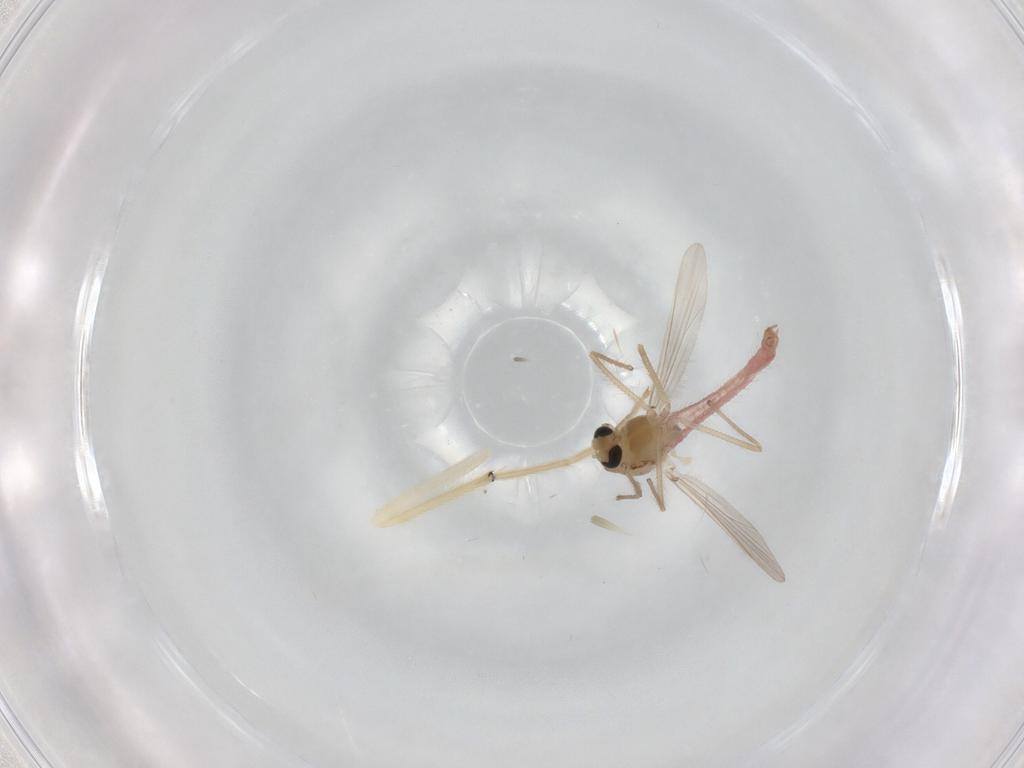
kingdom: Animalia
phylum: Arthropoda
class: Insecta
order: Diptera
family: Chironomidae
